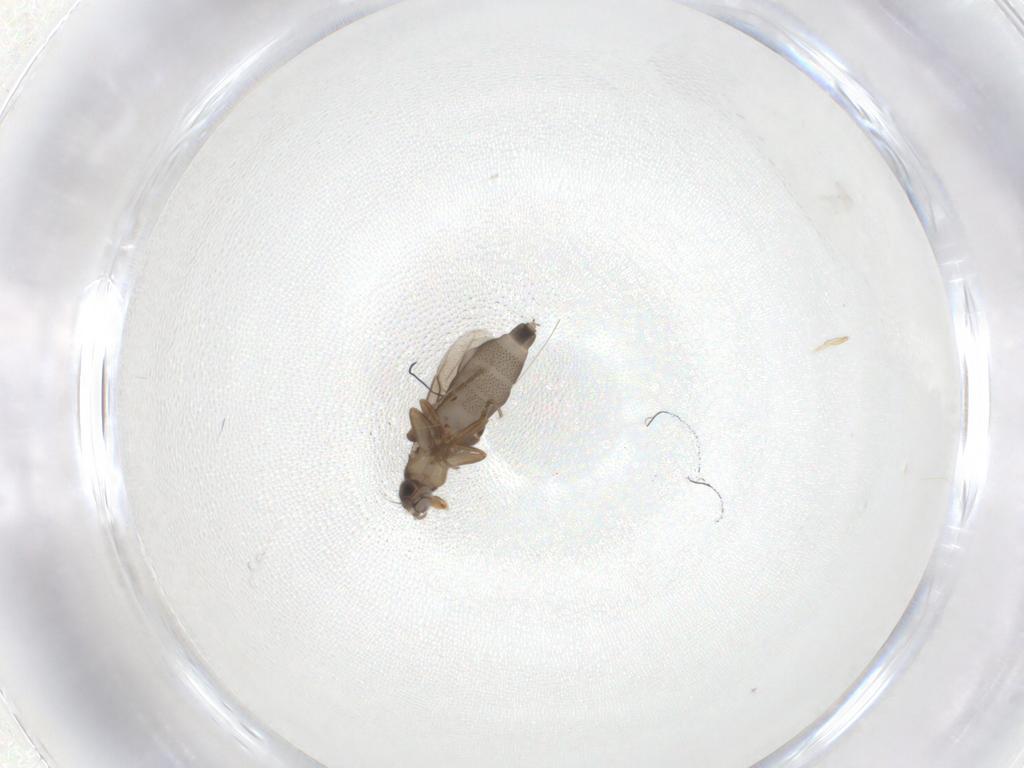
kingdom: Animalia
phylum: Arthropoda
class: Insecta
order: Diptera
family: Phoridae
